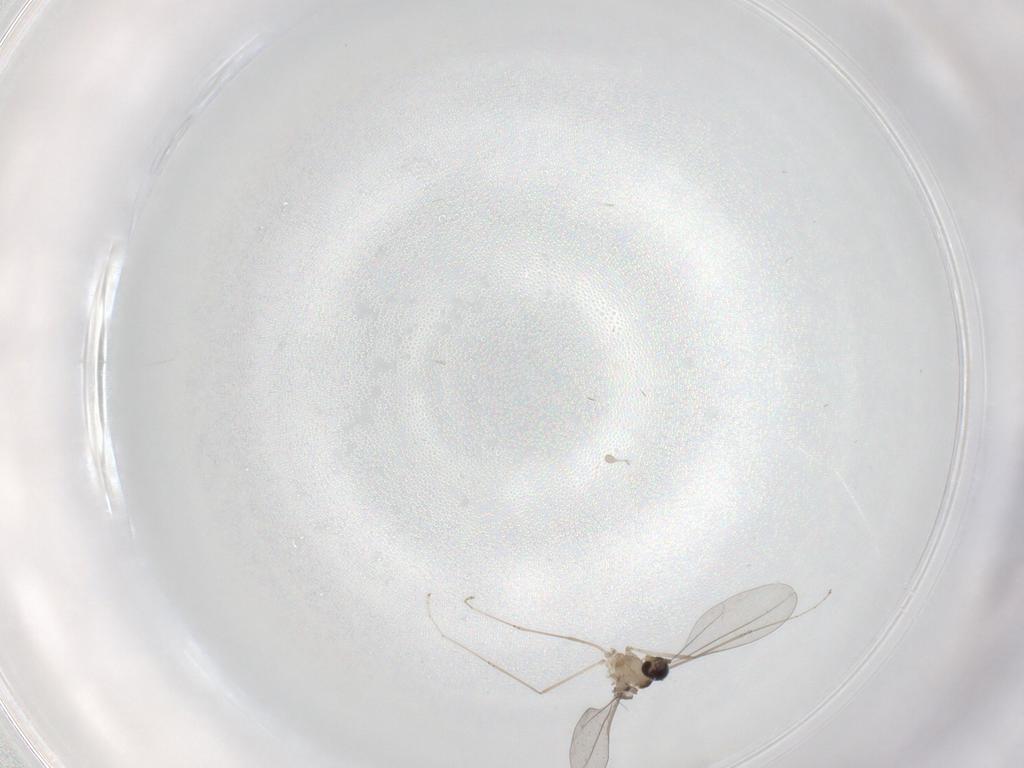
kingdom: Animalia
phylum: Arthropoda
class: Insecta
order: Diptera
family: Cecidomyiidae
